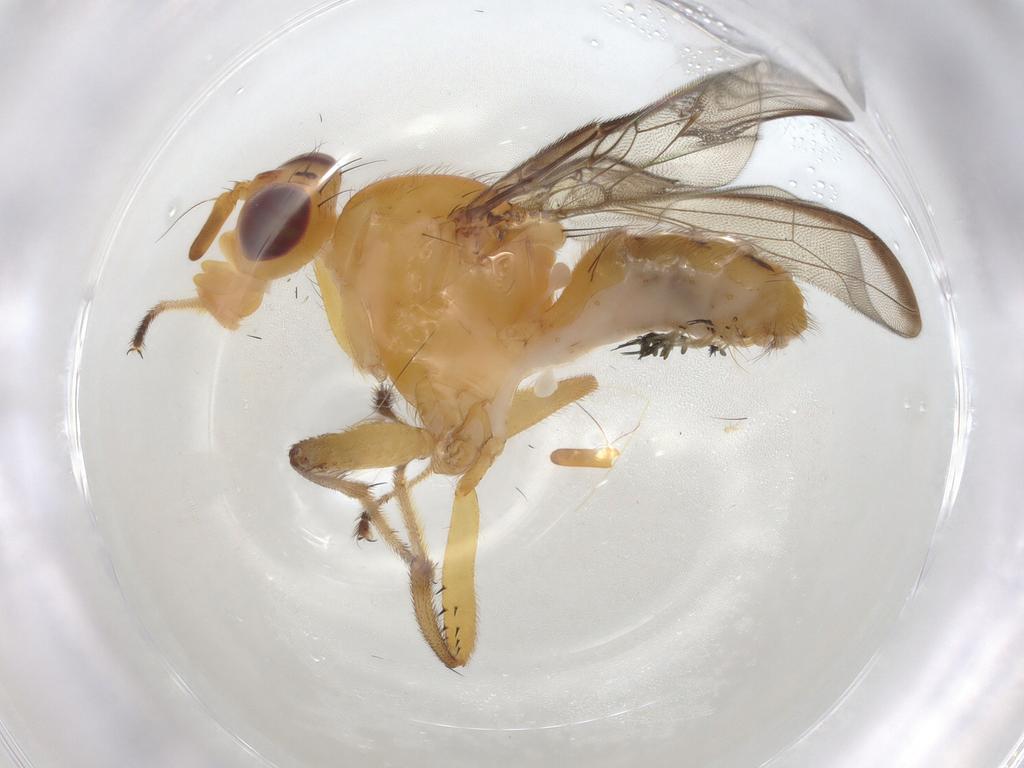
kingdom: Animalia
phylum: Arthropoda
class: Insecta
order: Diptera
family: Richardiidae
